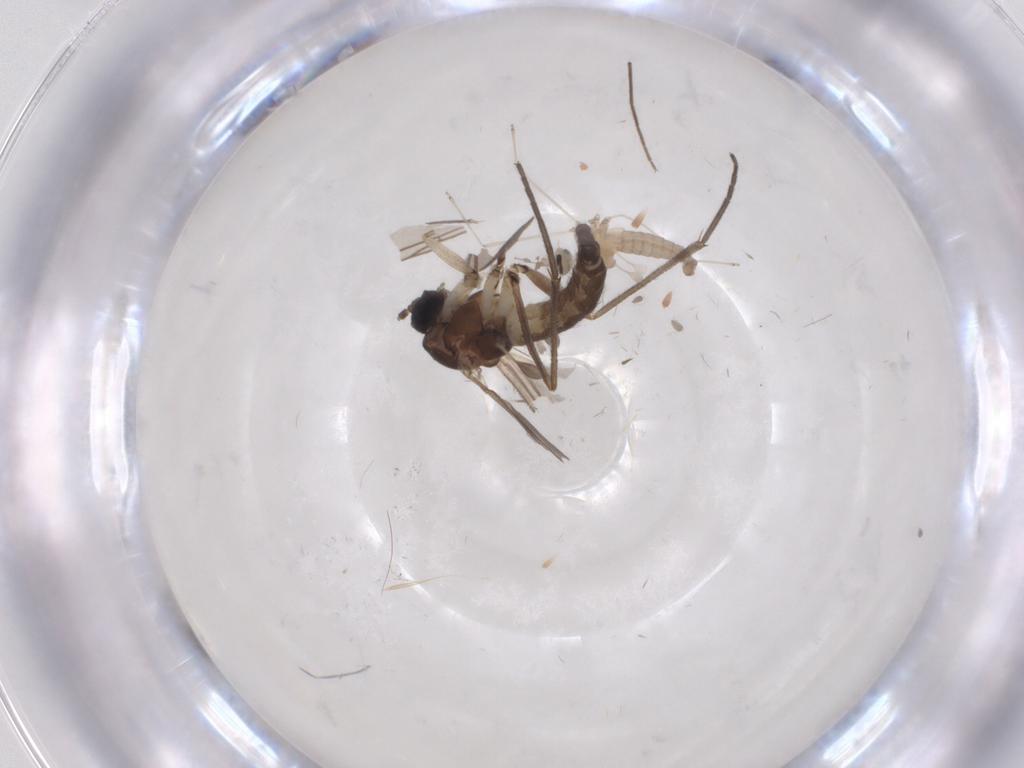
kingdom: Animalia
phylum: Arthropoda
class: Insecta
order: Diptera
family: Sciaridae
